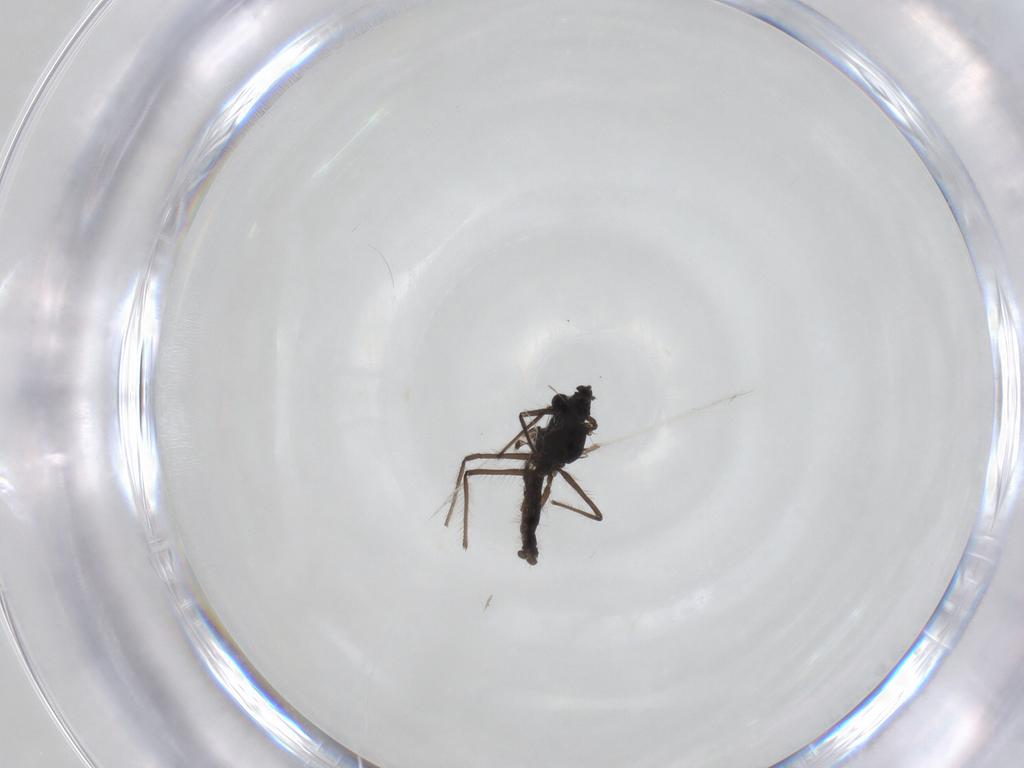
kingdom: Animalia
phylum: Arthropoda
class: Insecta
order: Diptera
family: Chironomidae
